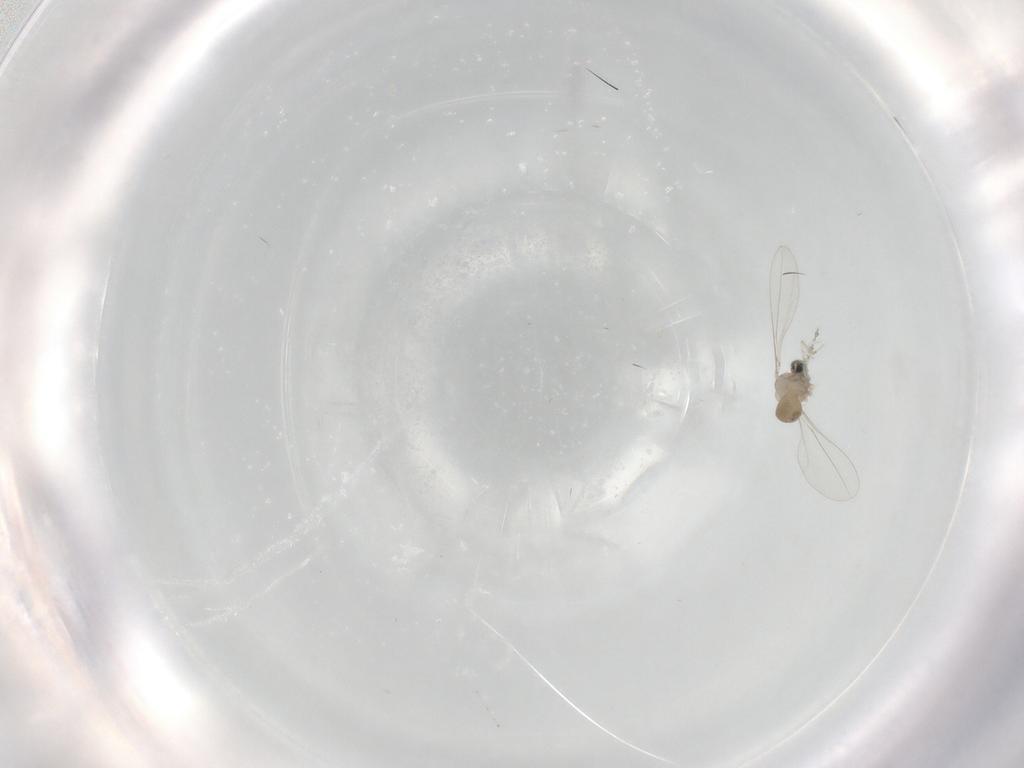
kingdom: Animalia
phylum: Arthropoda
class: Insecta
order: Diptera
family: Cecidomyiidae
